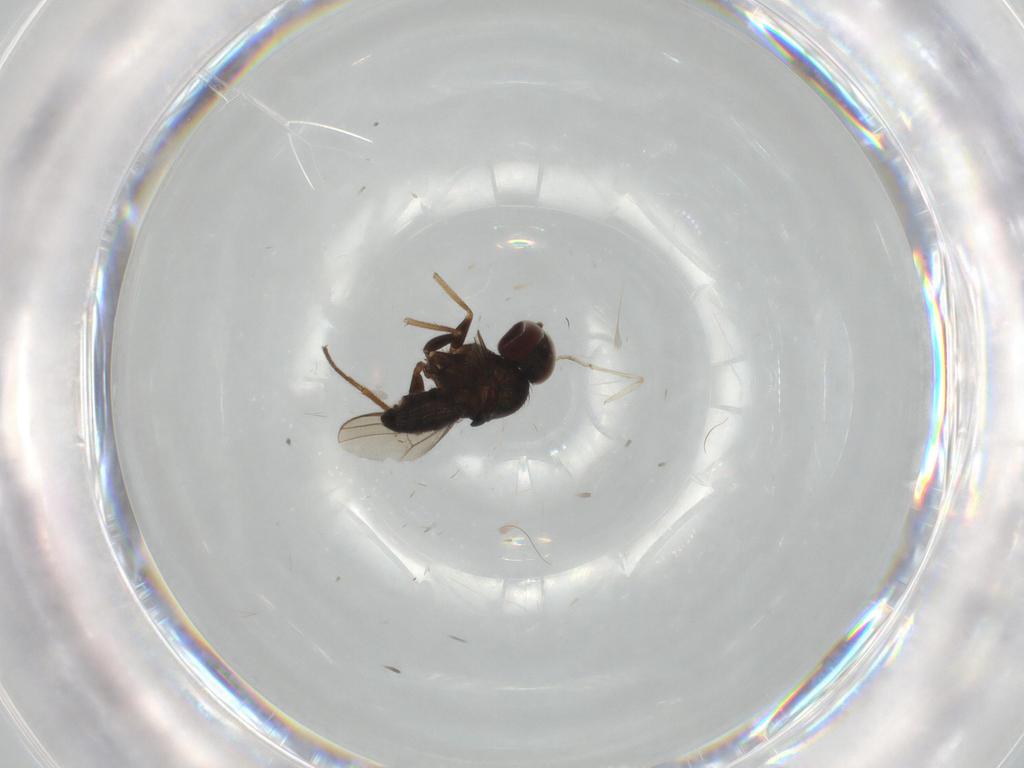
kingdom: Animalia
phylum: Arthropoda
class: Insecta
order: Diptera
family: Dolichopodidae
